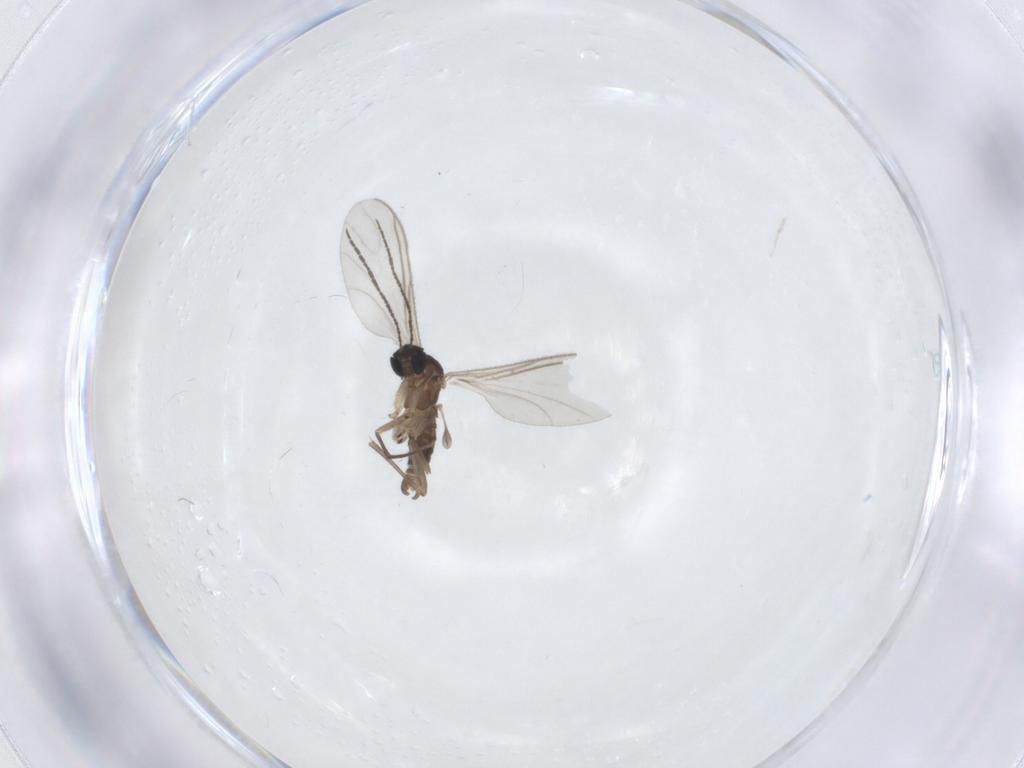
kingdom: Animalia
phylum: Arthropoda
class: Insecta
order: Diptera
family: Sciaridae
